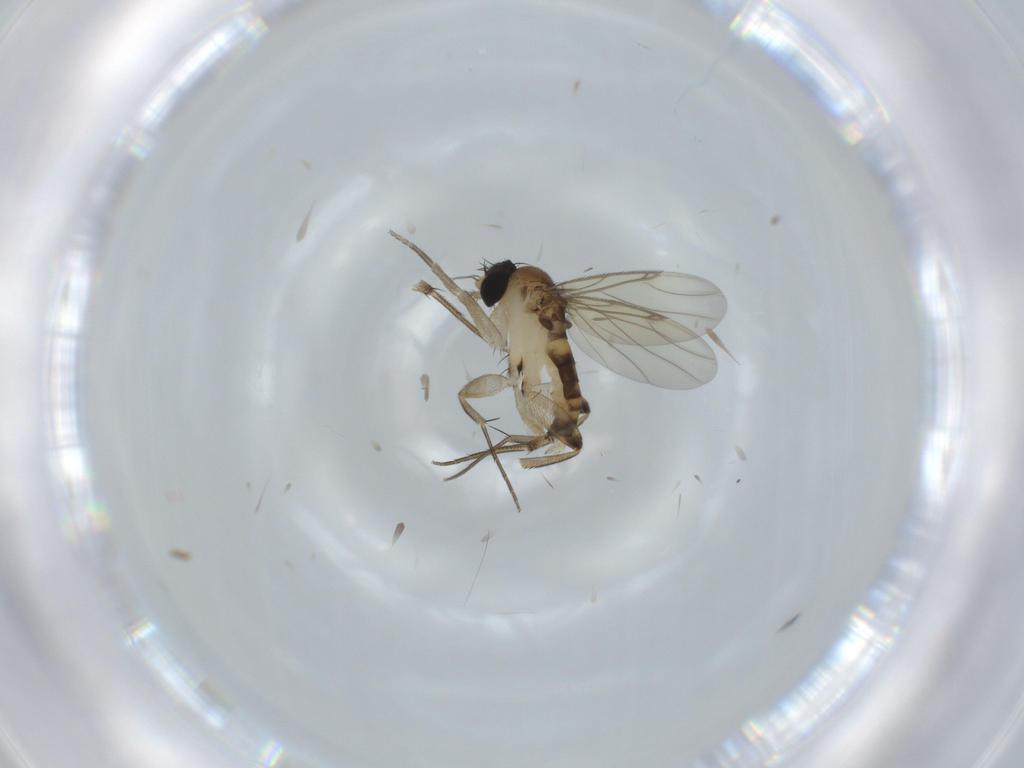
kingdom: Animalia
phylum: Arthropoda
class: Insecta
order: Diptera
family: Phoridae
